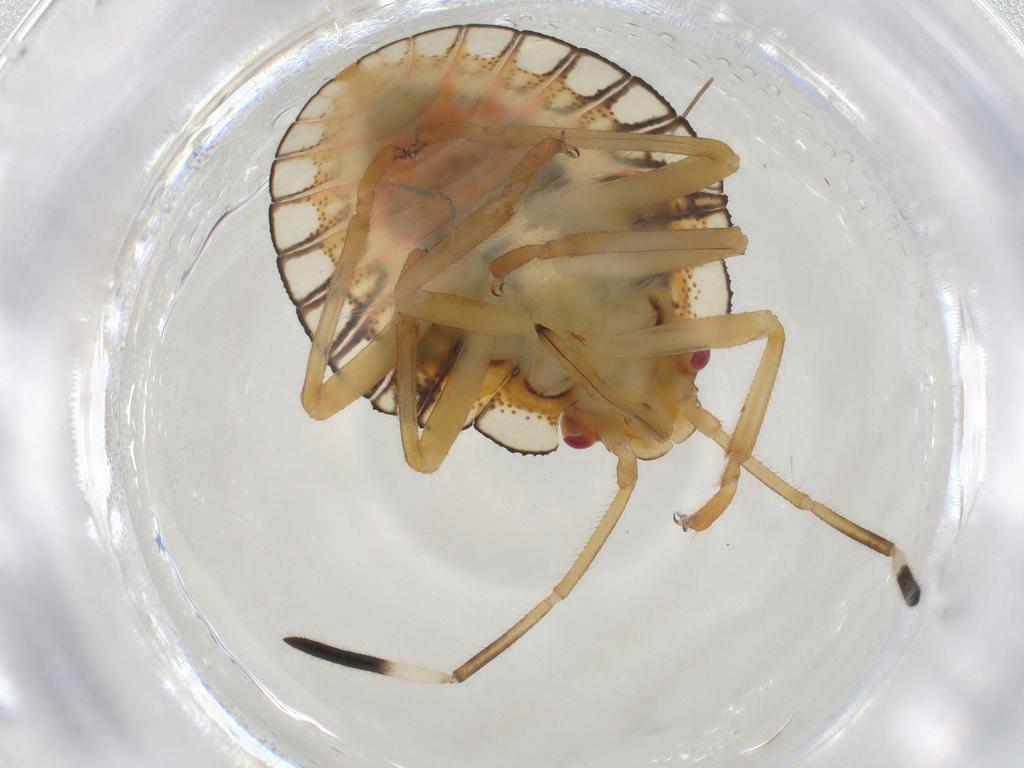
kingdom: Animalia
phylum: Arthropoda
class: Insecta
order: Hemiptera
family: Pentatomidae
